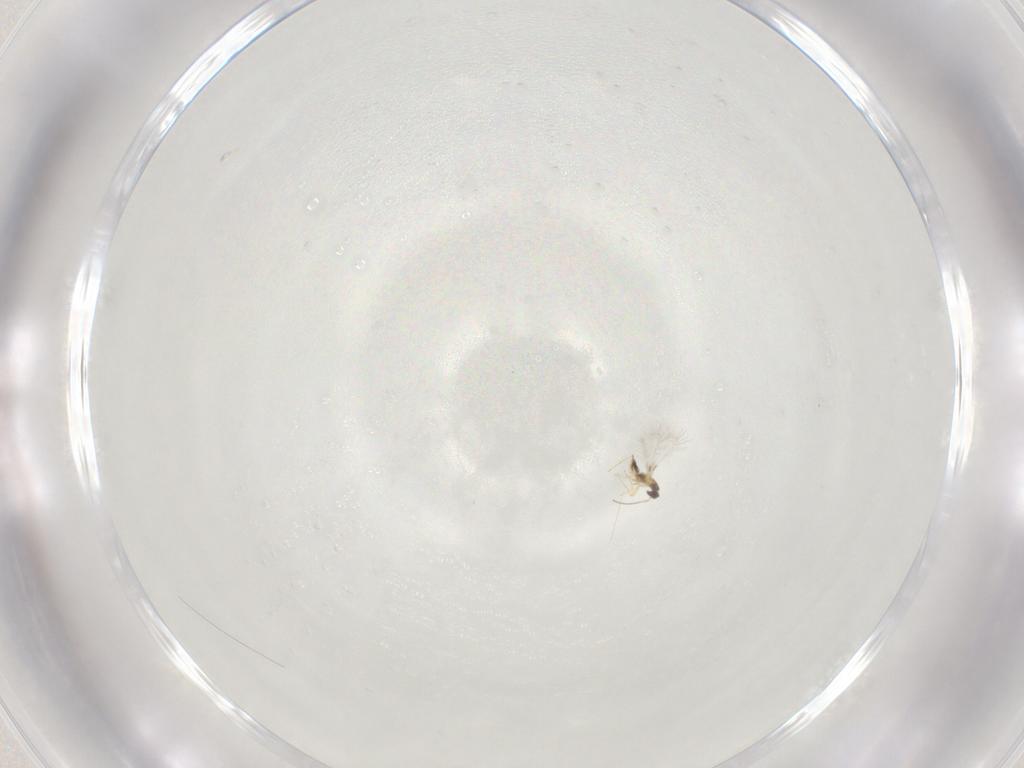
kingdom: Animalia
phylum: Arthropoda
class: Insecta
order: Hymenoptera
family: Mymaridae
